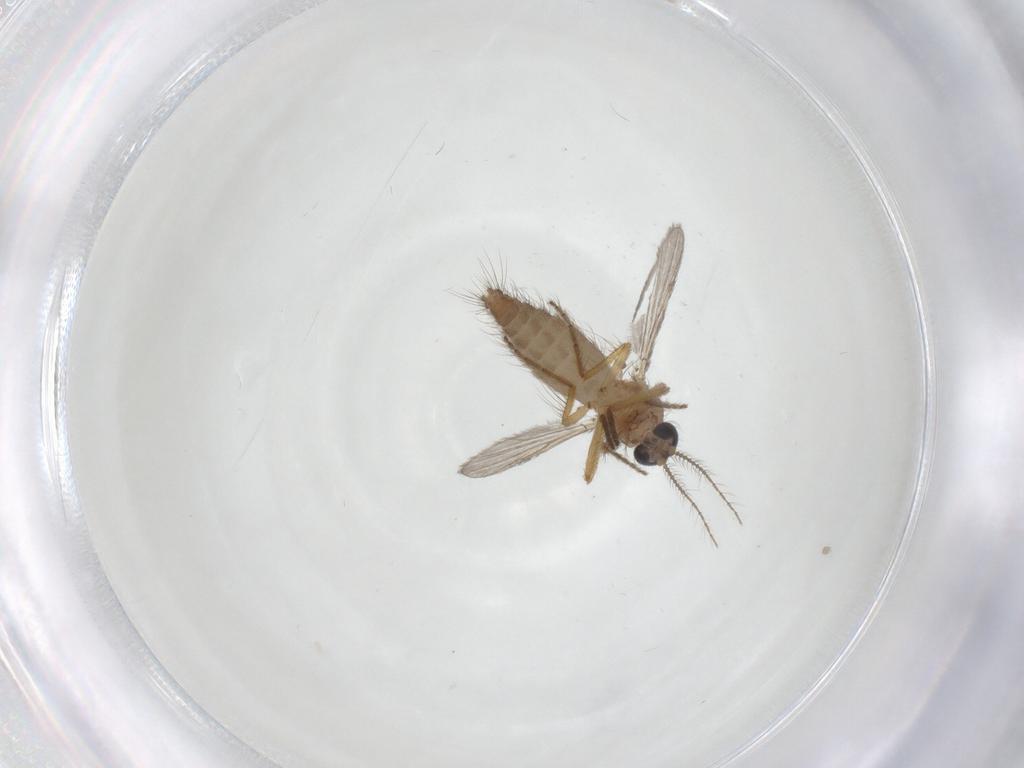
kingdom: Animalia
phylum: Arthropoda
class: Insecta
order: Diptera
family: Ceratopogonidae
